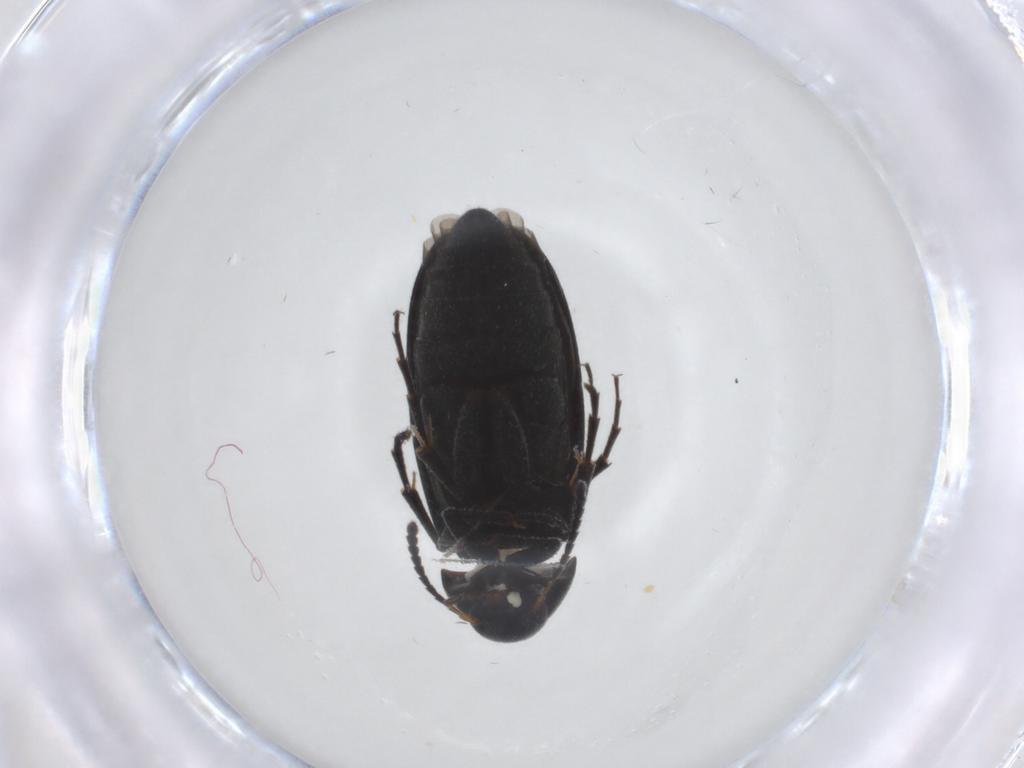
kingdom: Animalia
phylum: Arthropoda
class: Insecta
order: Coleoptera
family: Scraptiidae
